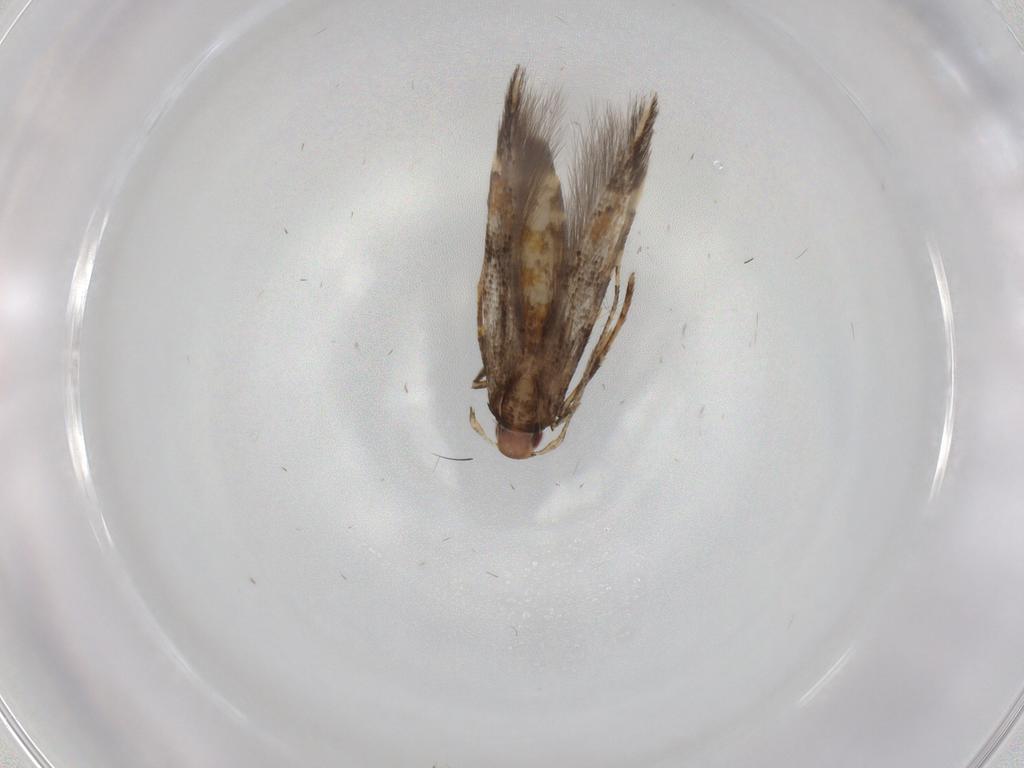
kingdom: Animalia
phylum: Arthropoda
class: Insecta
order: Lepidoptera
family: Cosmopterigidae
